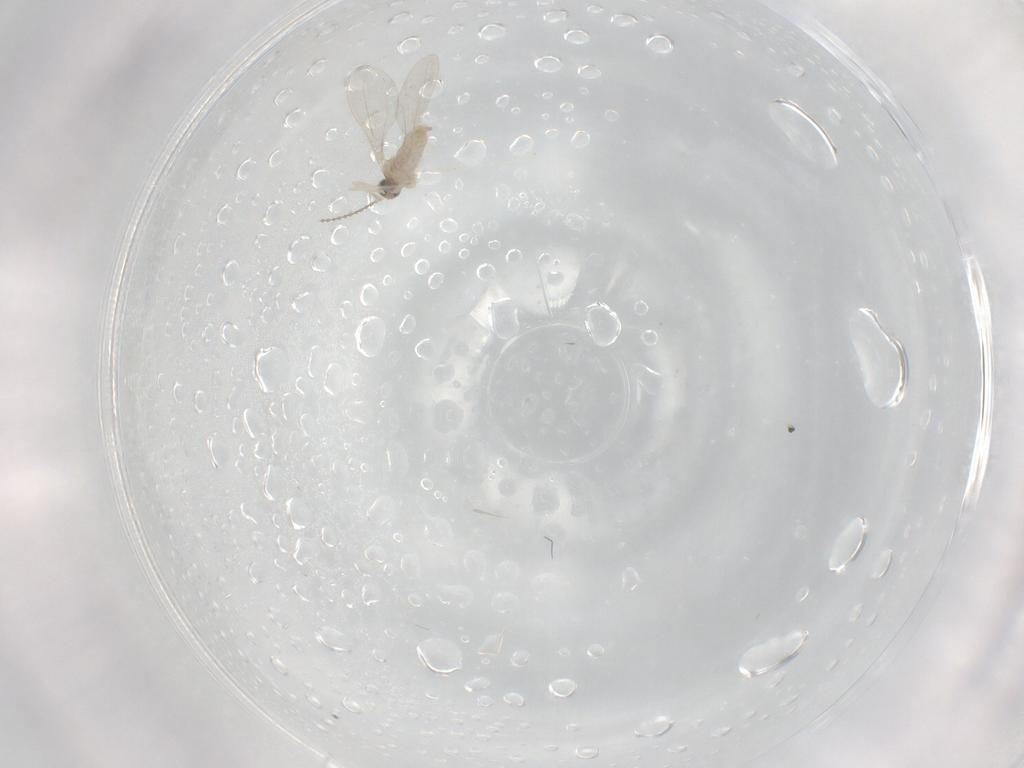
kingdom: Animalia
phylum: Arthropoda
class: Insecta
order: Diptera
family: Cecidomyiidae
